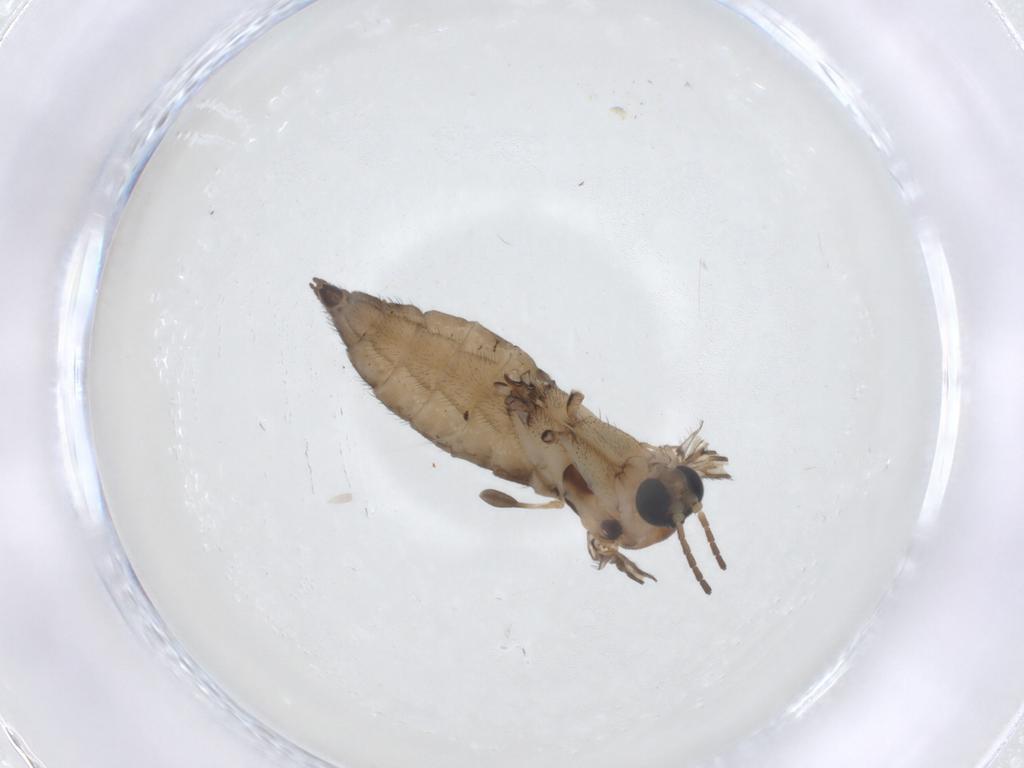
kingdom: Animalia
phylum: Arthropoda
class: Insecta
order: Diptera
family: Sciaridae
